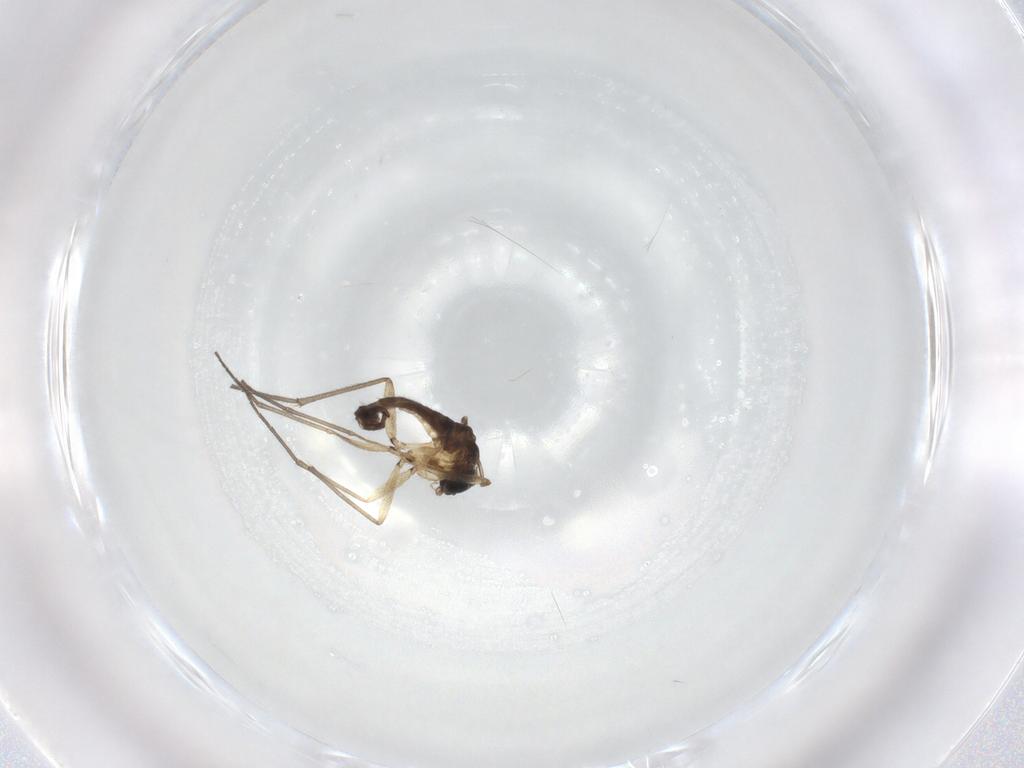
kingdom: Animalia
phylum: Arthropoda
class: Insecta
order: Diptera
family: Sciaridae
